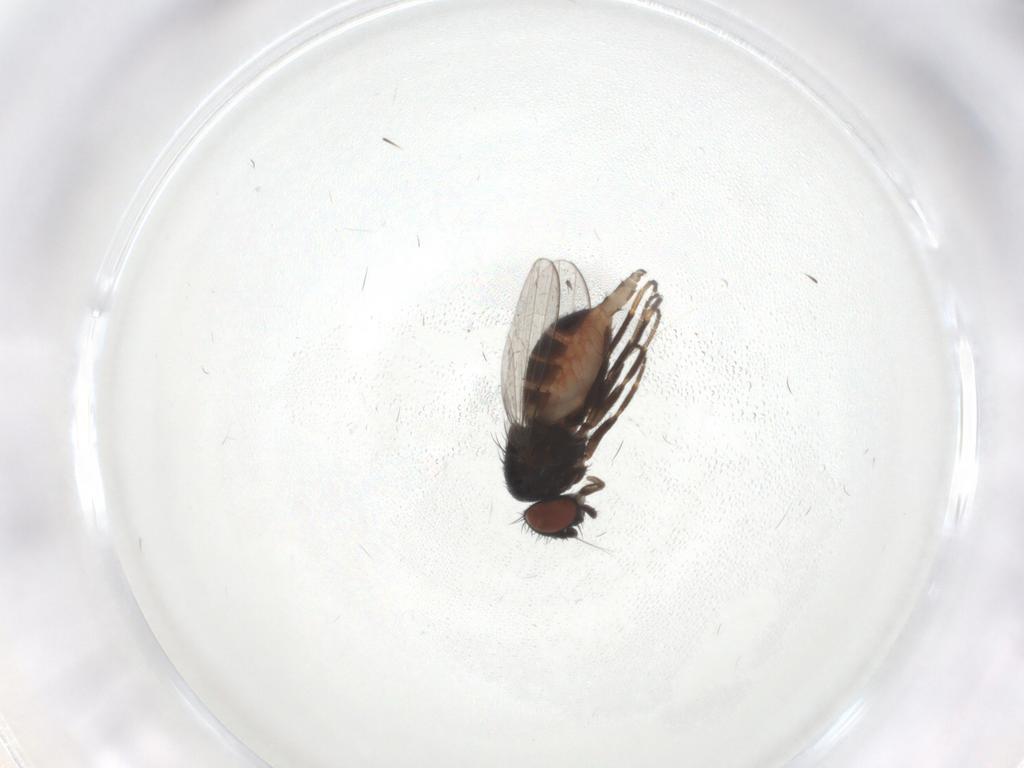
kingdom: Animalia
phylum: Arthropoda
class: Insecta
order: Diptera
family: Milichiidae
